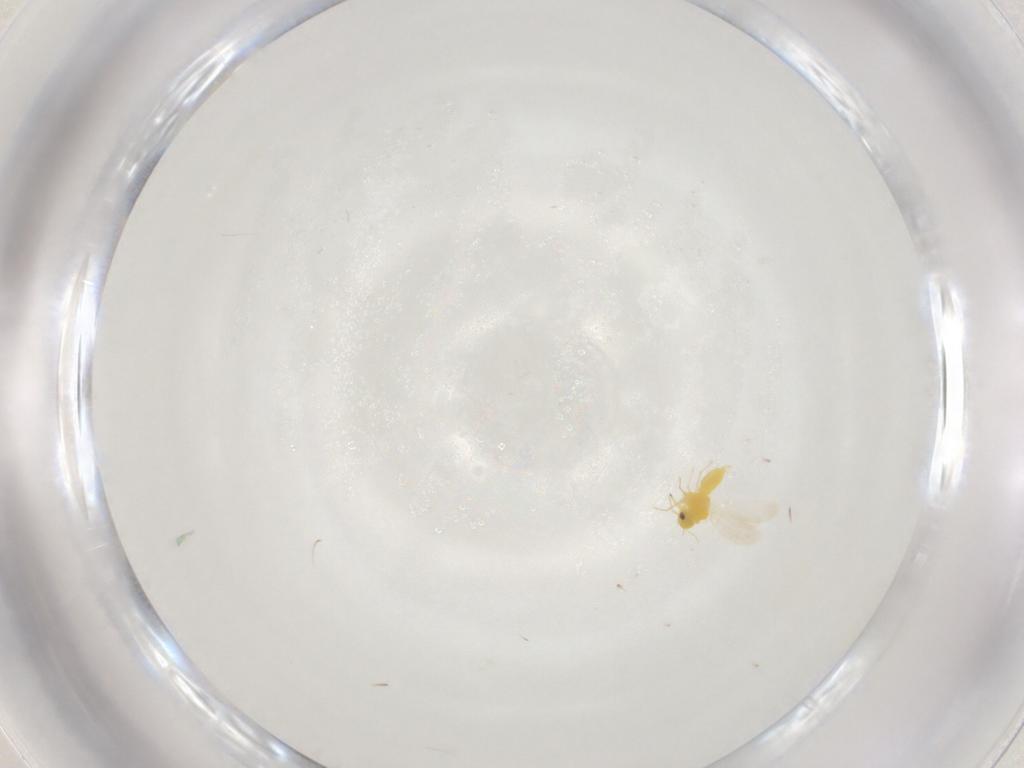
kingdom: Animalia
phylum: Arthropoda
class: Insecta
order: Hemiptera
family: Aleyrodidae
